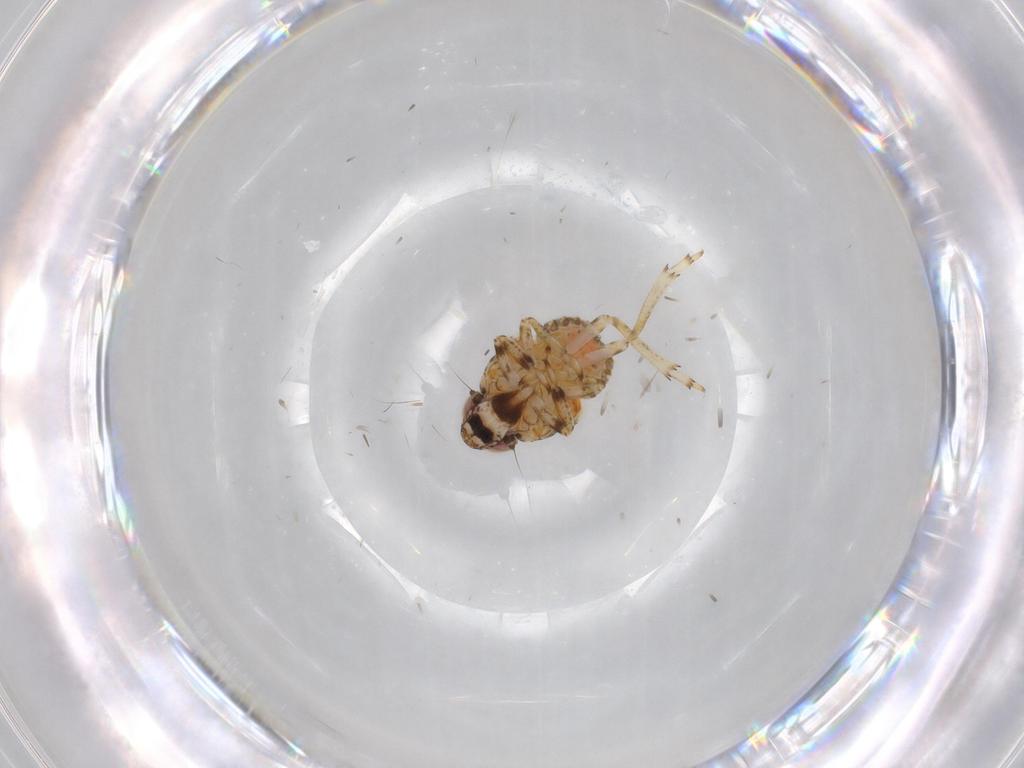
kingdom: Animalia
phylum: Arthropoda
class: Insecta
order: Hemiptera
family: Issidae
